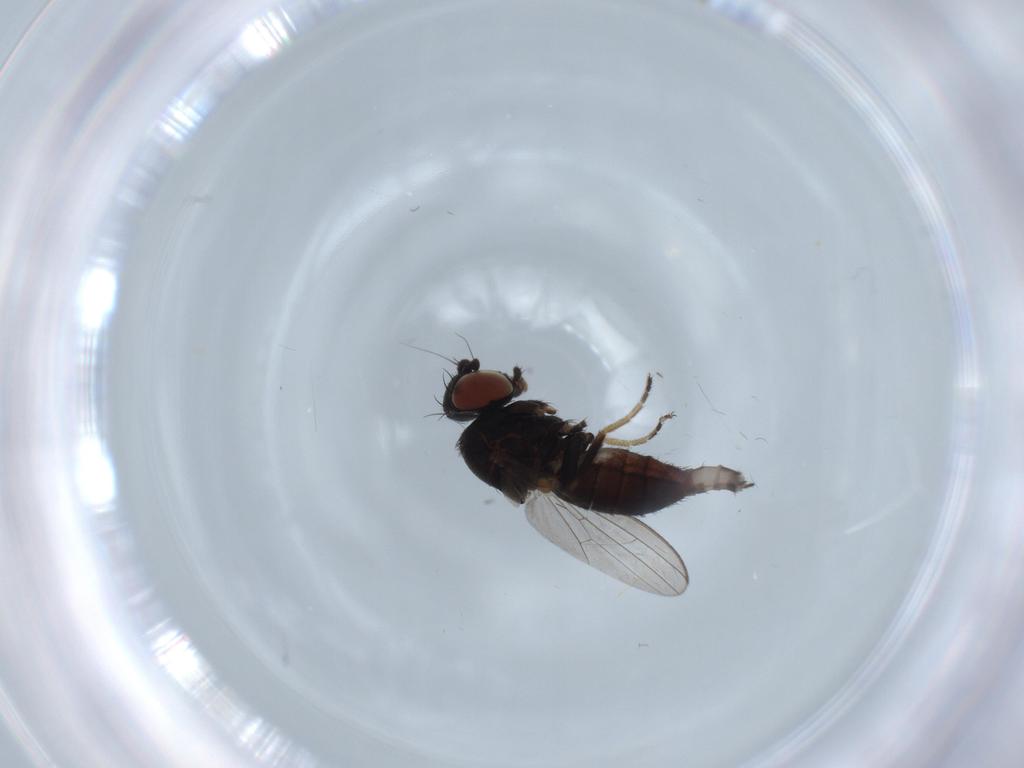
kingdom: Animalia
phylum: Arthropoda
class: Insecta
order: Diptera
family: Milichiidae
